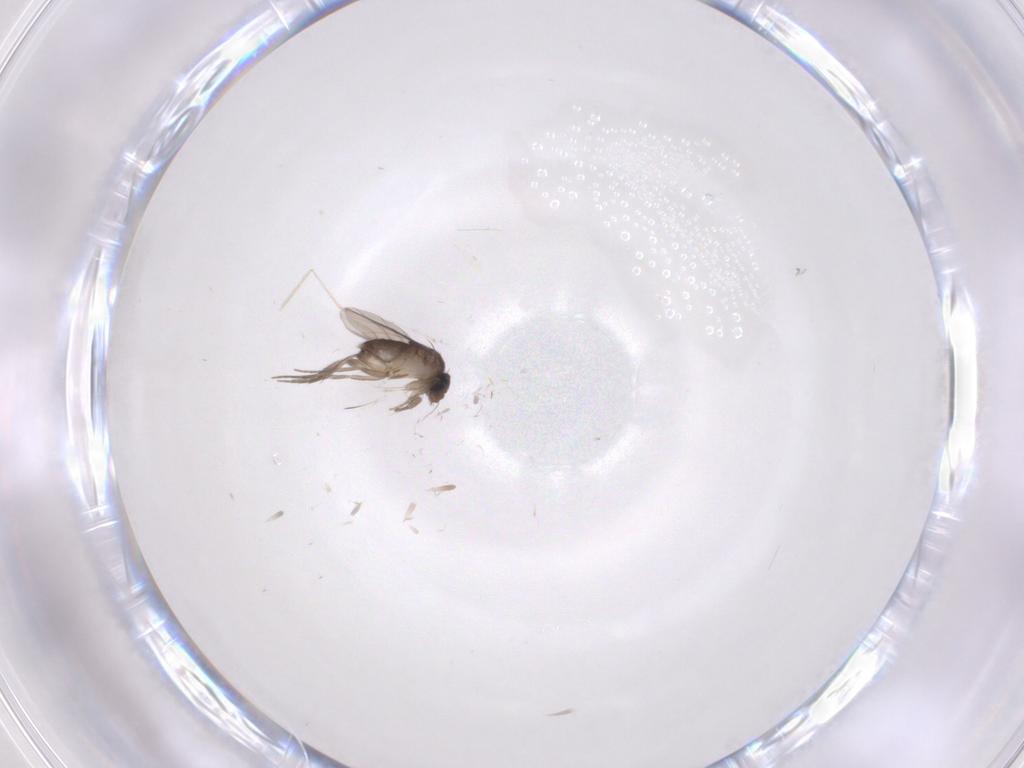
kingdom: Animalia
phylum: Arthropoda
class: Insecta
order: Diptera
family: Phoridae
